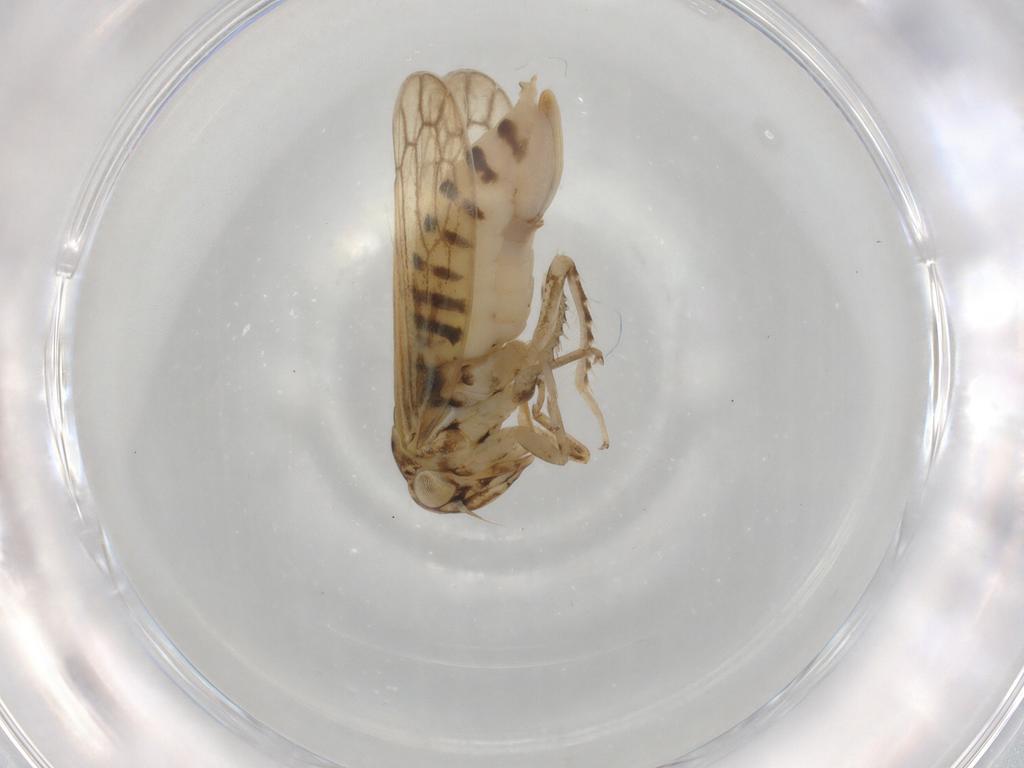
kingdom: Animalia
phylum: Arthropoda
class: Insecta
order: Hemiptera
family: Cicadellidae
